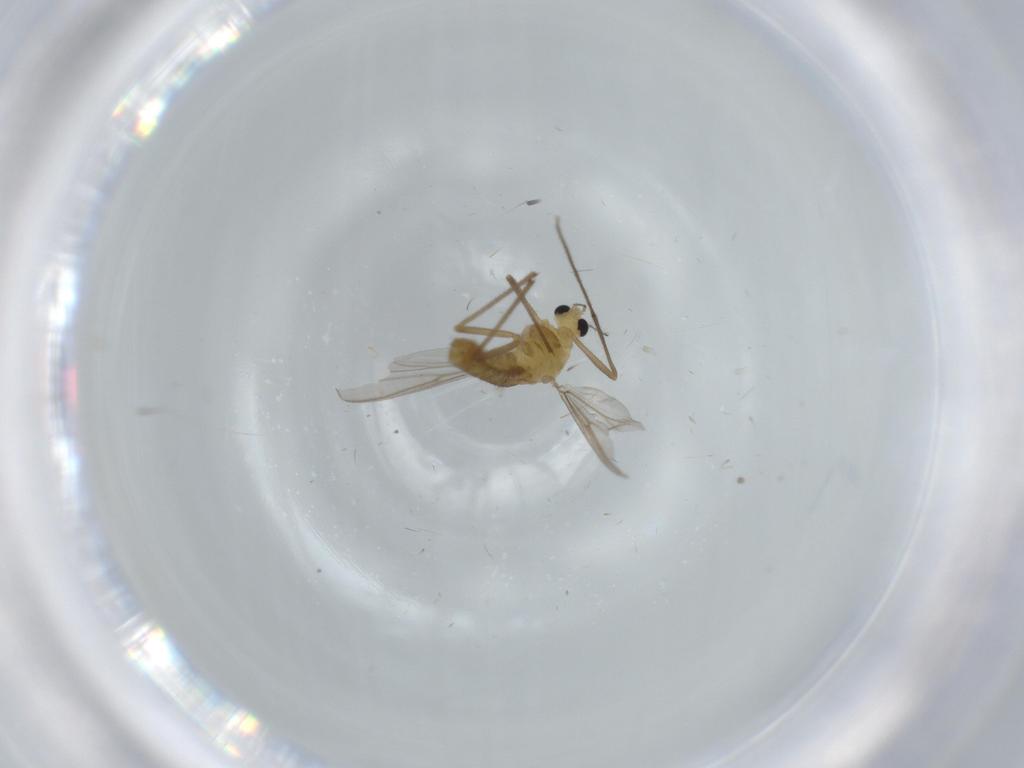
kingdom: Animalia
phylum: Arthropoda
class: Insecta
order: Diptera
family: Chironomidae
